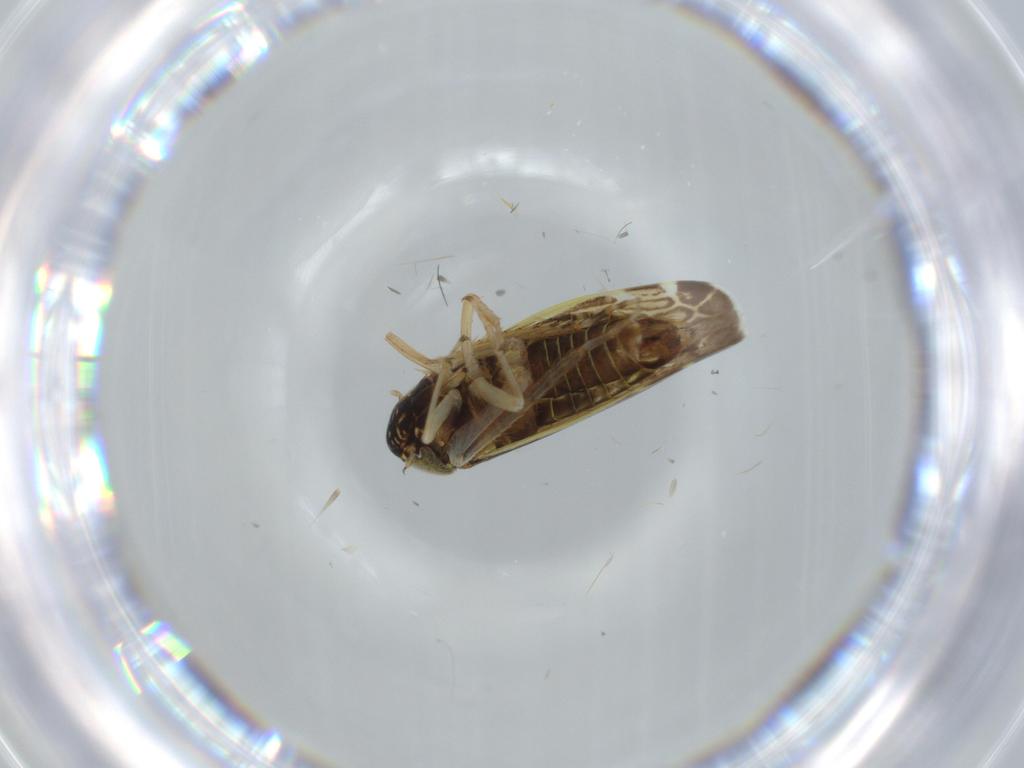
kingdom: Animalia
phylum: Arthropoda
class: Insecta
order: Hemiptera
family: Cicadellidae
